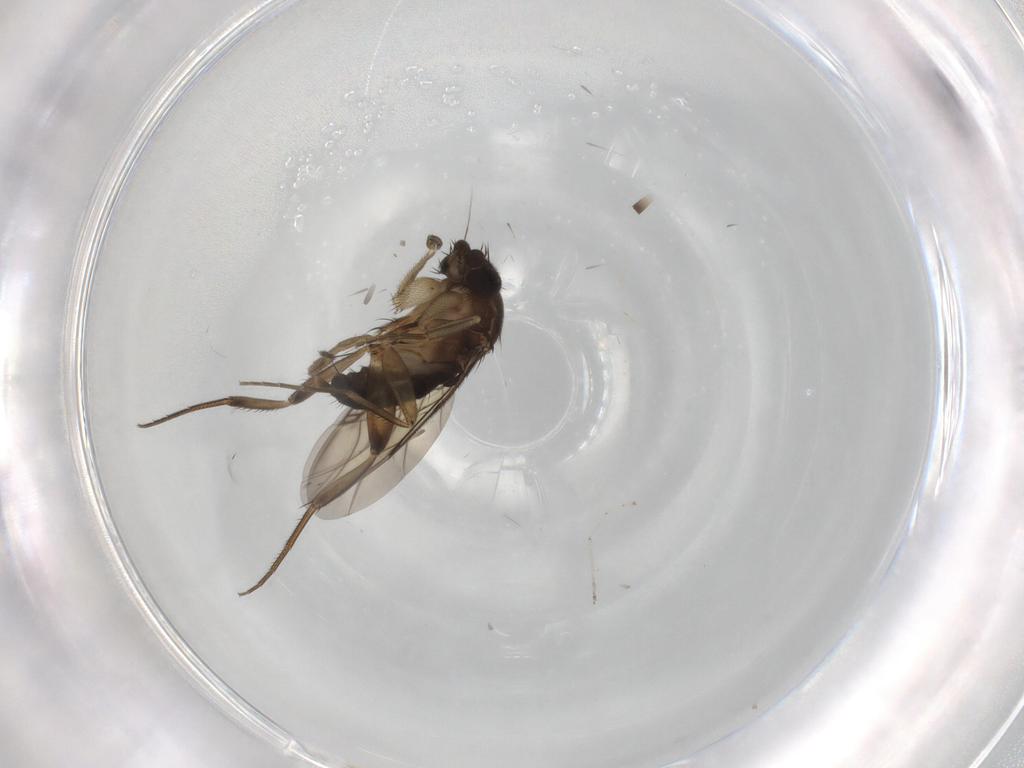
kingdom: Animalia
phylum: Arthropoda
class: Insecta
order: Diptera
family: Phoridae
